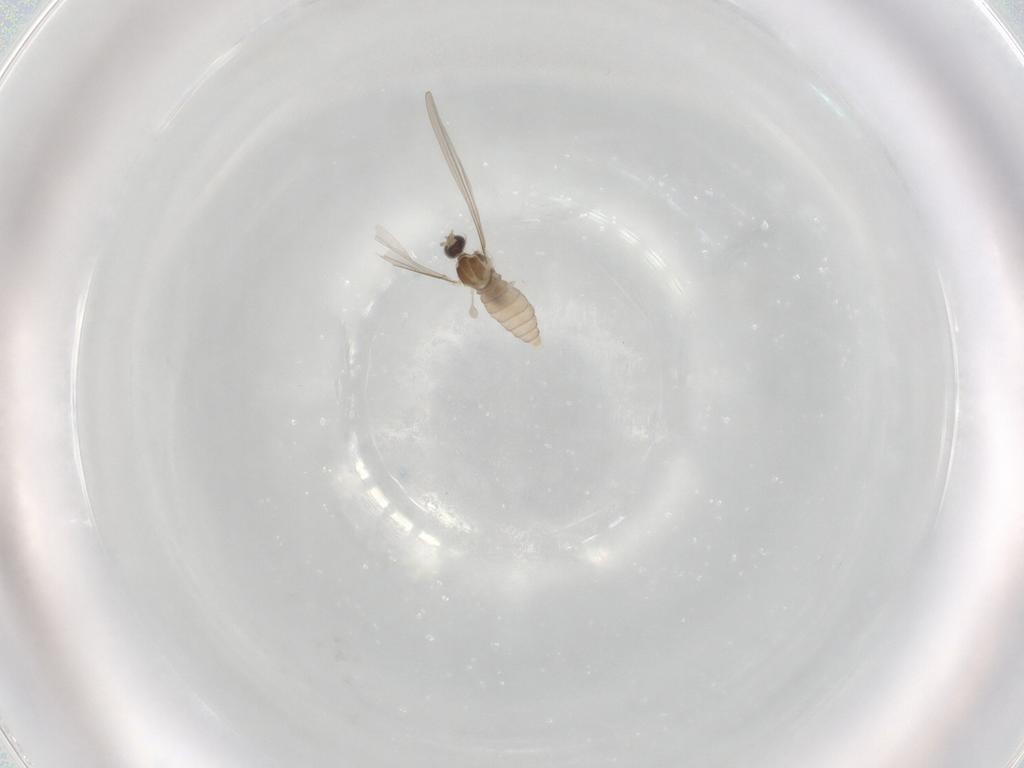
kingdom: Animalia
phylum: Arthropoda
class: Insecta
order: Diptera
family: Cecidomyiidae
